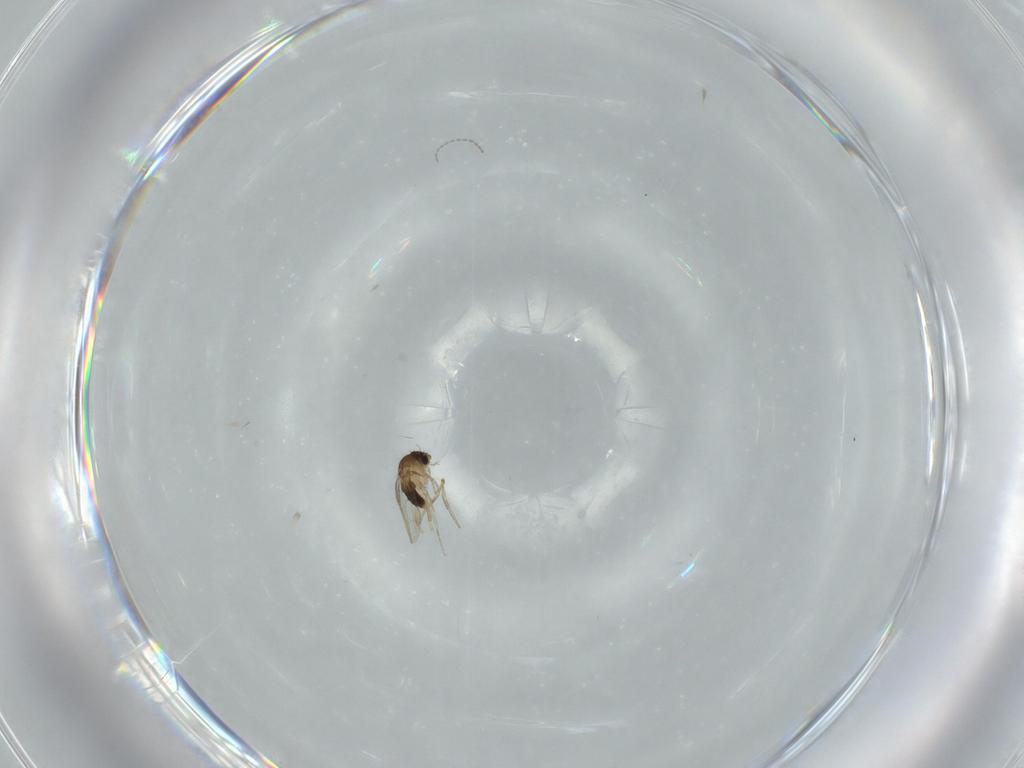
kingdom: Animalia
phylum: Arthropoda
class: Insecta
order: Diptera
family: Phoridae
